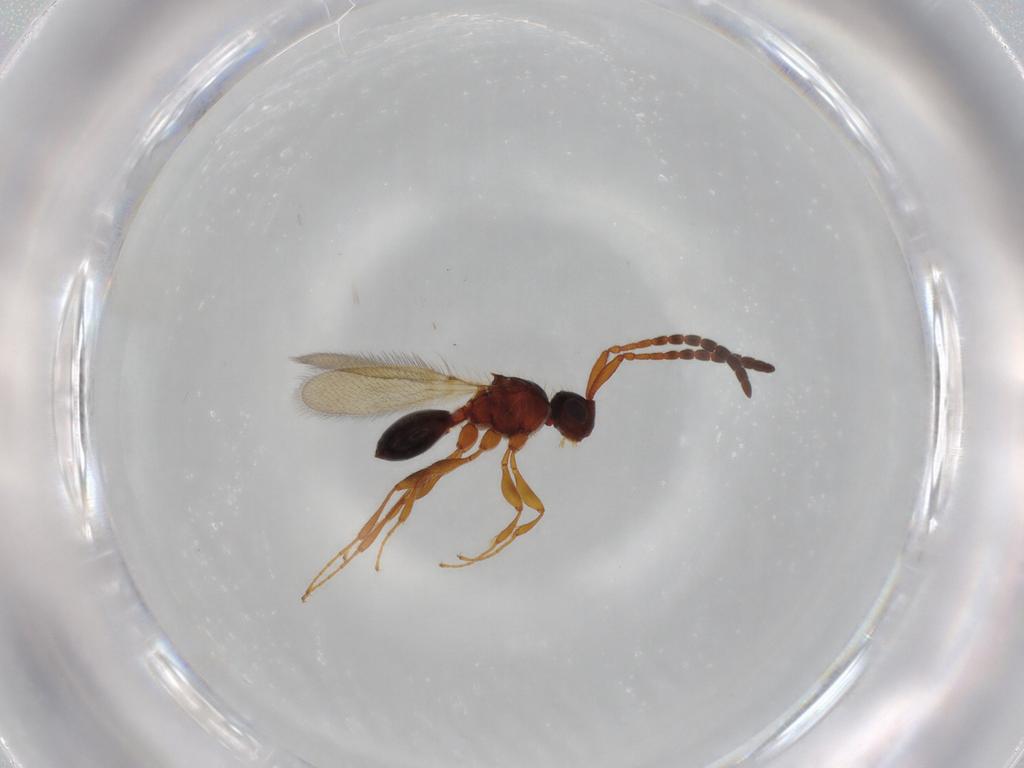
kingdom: Animalia
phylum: Arthropoda
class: Insecta
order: Hymenoptera
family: Diapriidae
